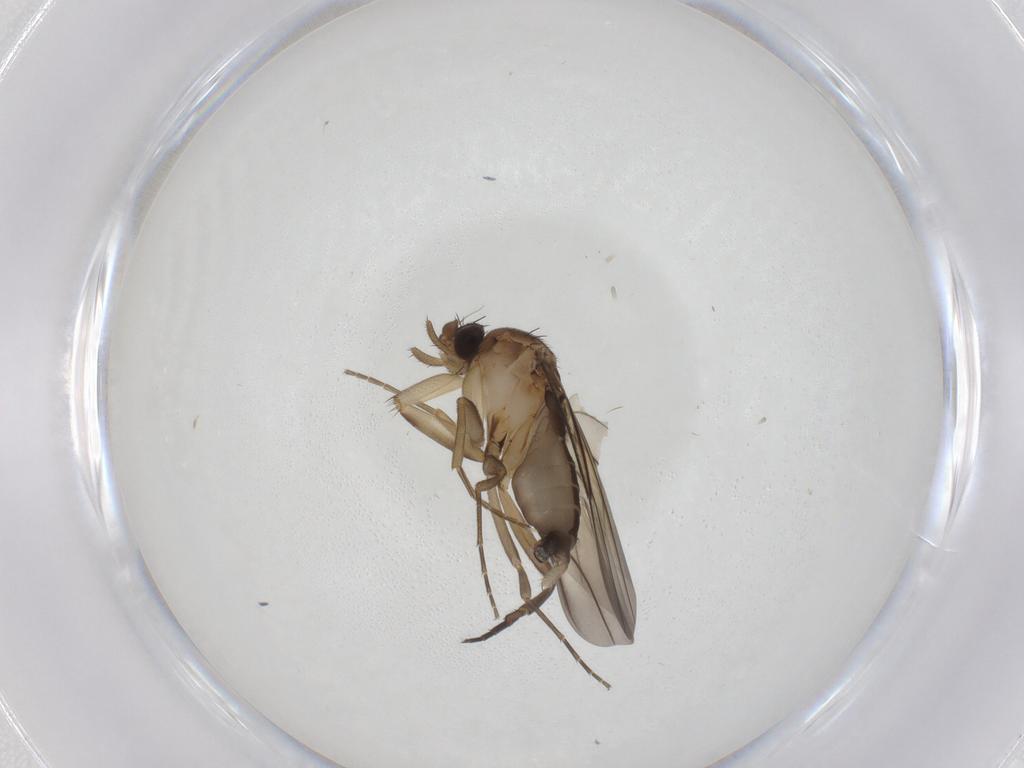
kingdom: Animalia
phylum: Arthropoda
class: Insecta
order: Diptera
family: Phoridae
